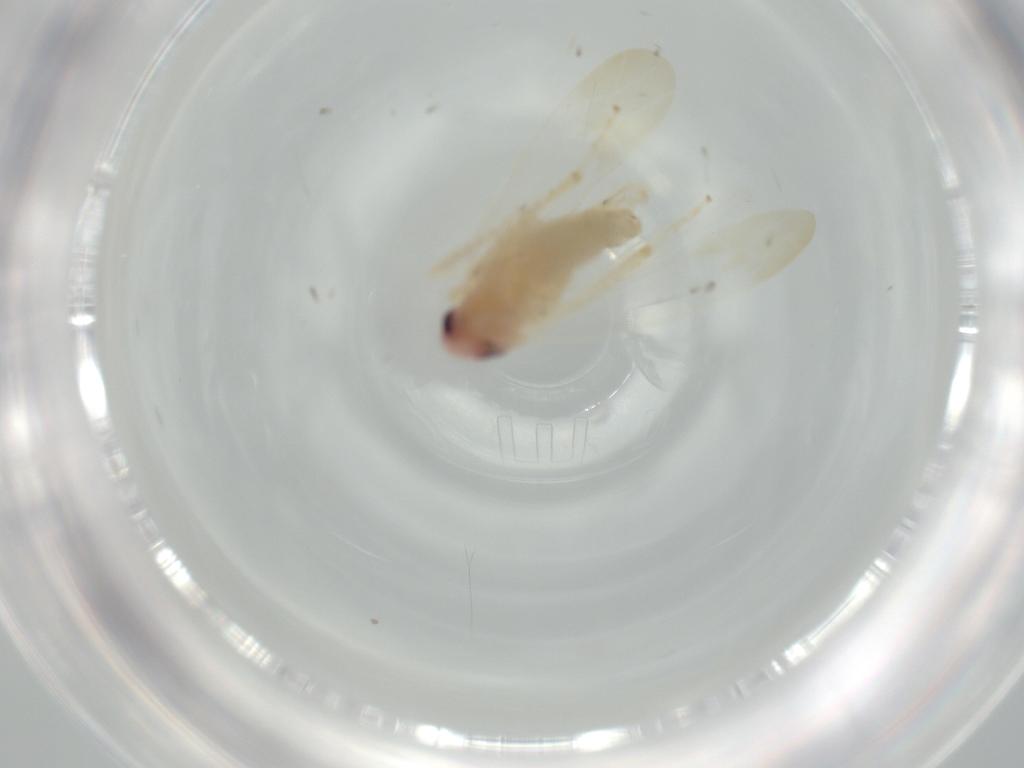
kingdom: Animalia
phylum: Arthropoda
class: Insecta
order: Hemiptera
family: Cicadellidae
